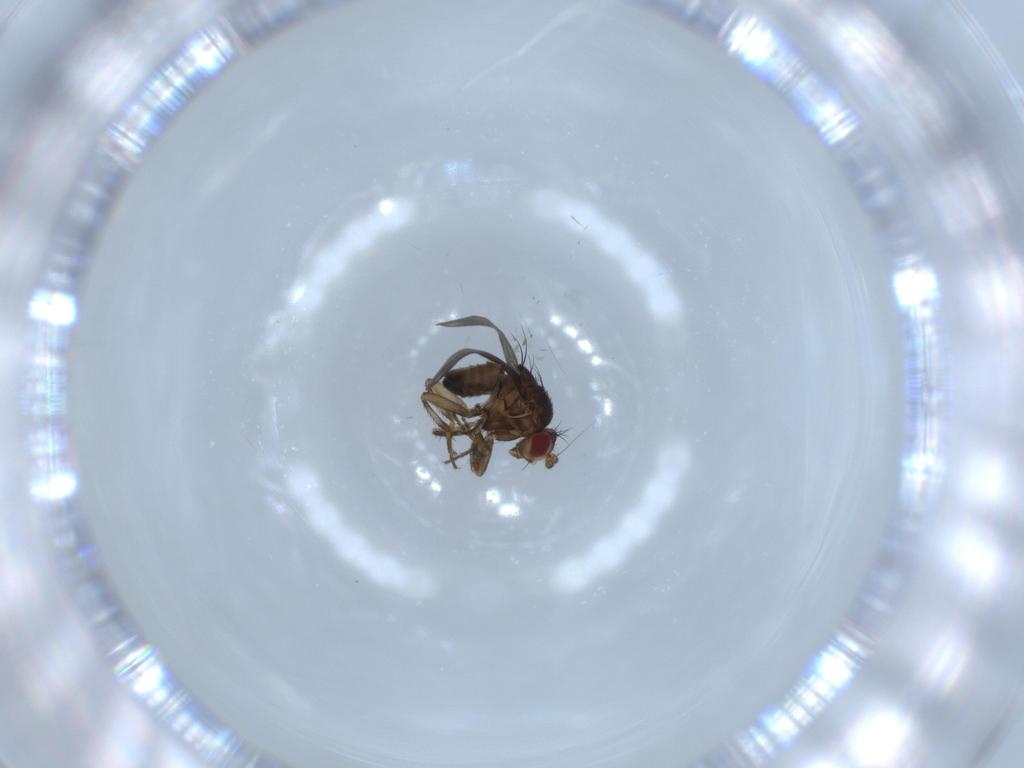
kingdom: Animalia
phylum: Arthropoda
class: Insecta
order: Diptera
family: Sphaeroceridae
